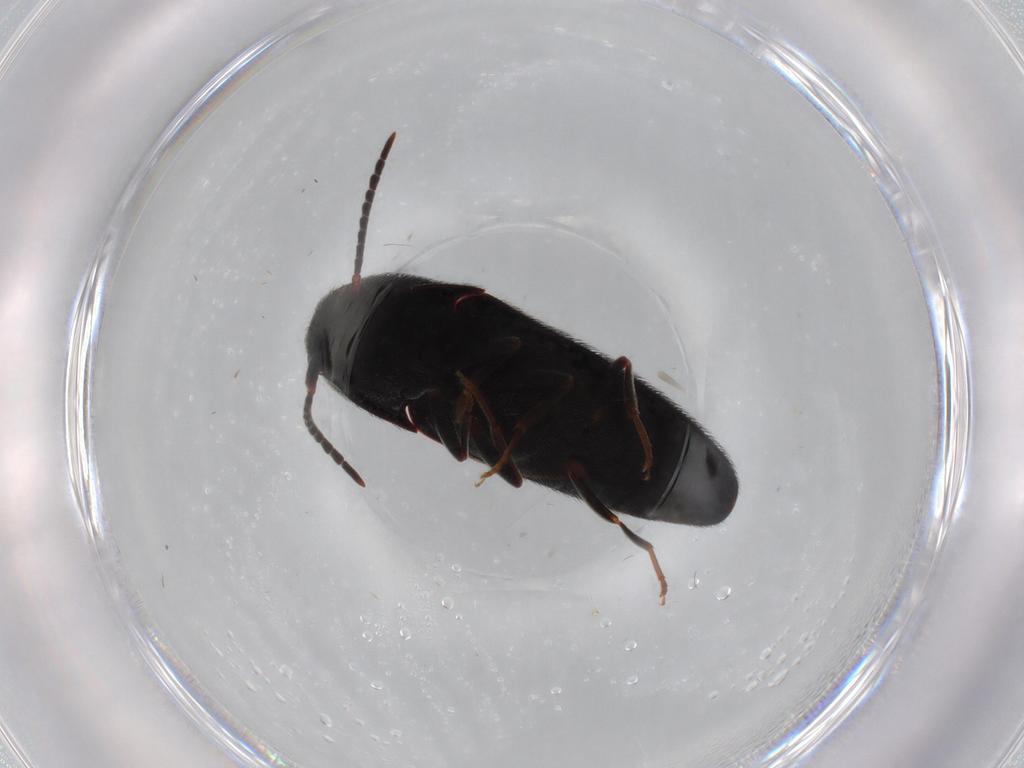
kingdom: Animalia
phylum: Arthropoda
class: Insecta
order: Coleoptera
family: Eucnemidae
